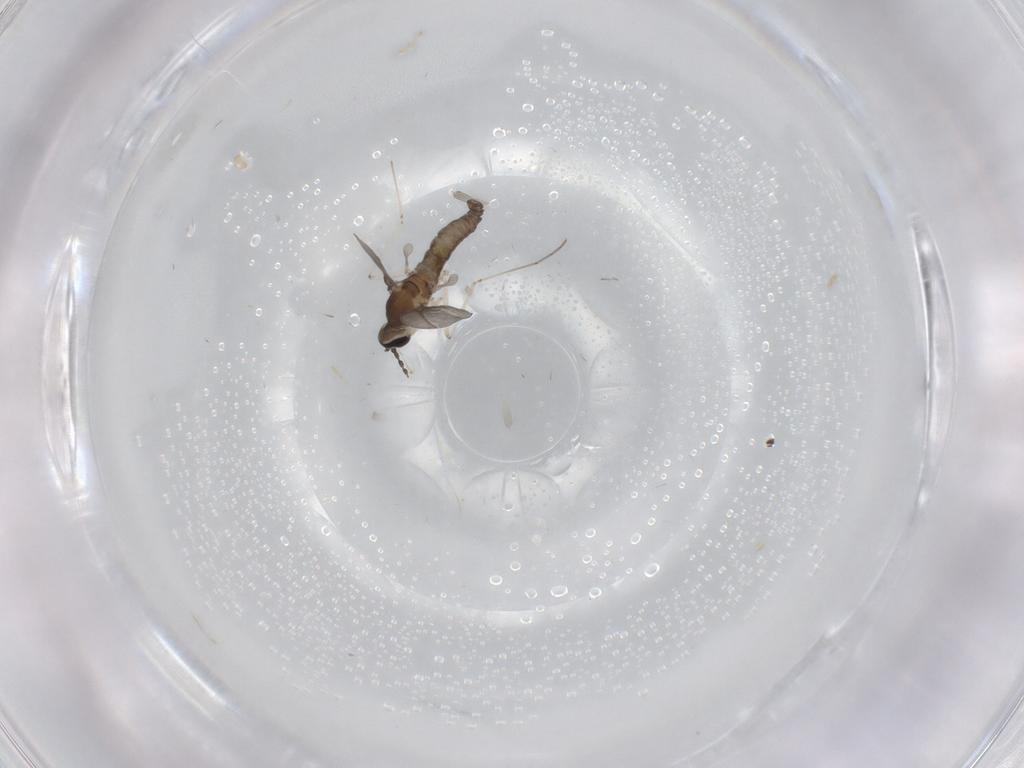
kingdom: Animalia
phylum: Arthropoda
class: Insecta
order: Diptera
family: Cecidomyiidae
